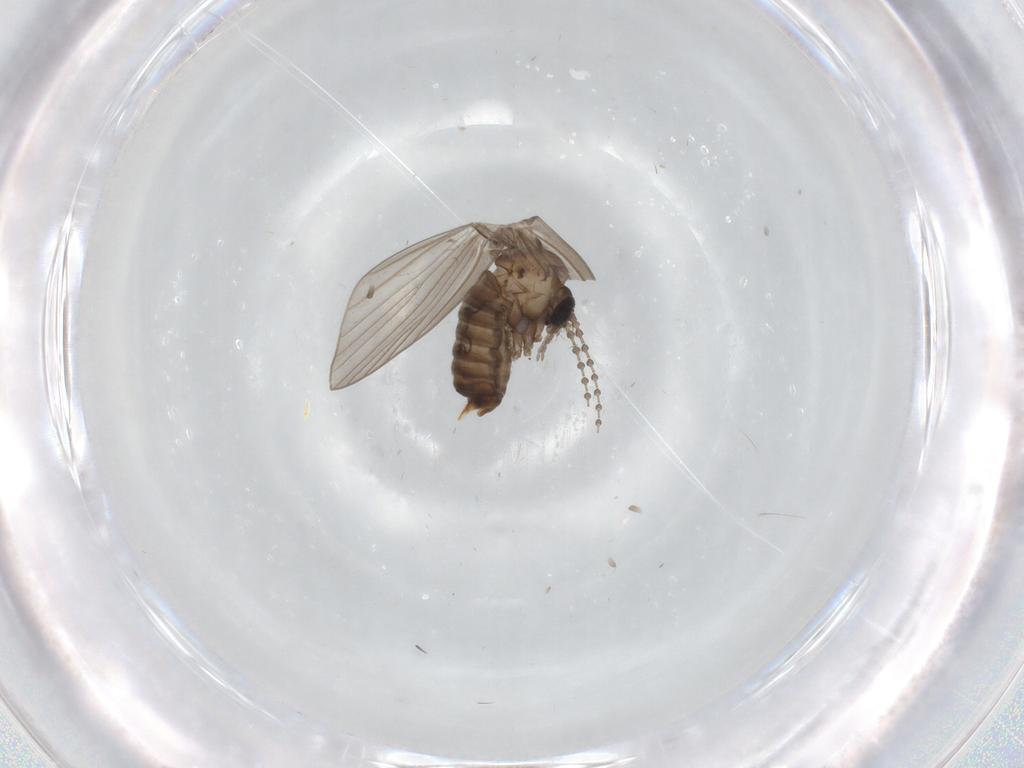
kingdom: Animalia
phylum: Arthropoda
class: Insecta
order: Diptera
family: Psychodidae
